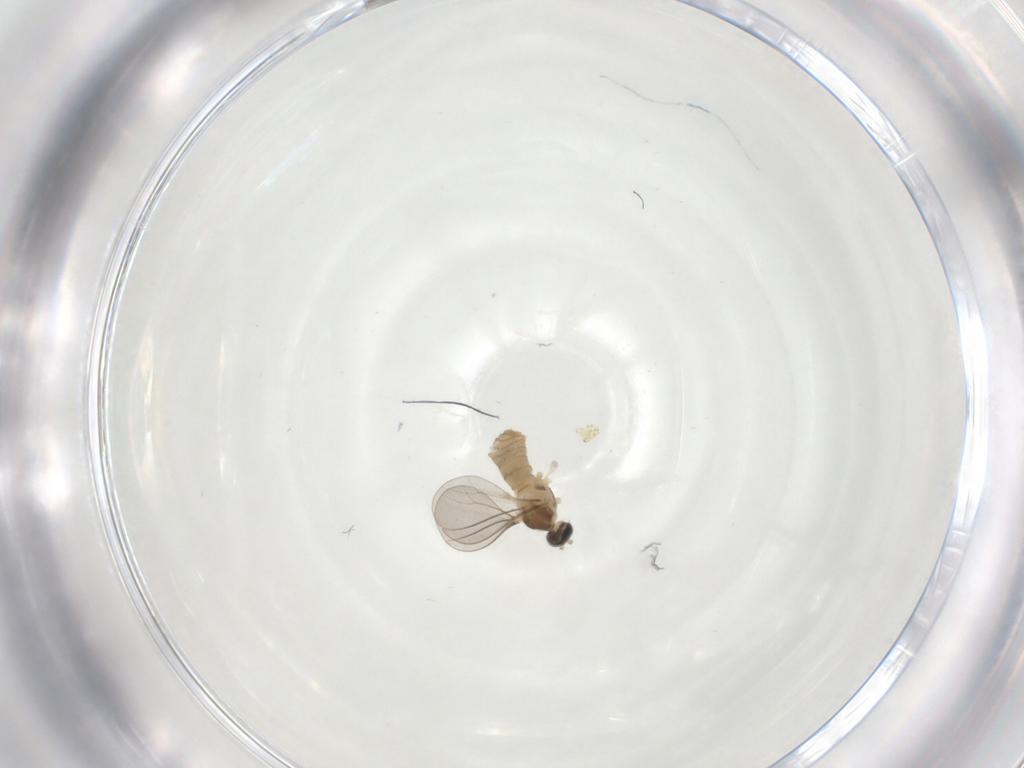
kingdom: Animalia
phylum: Arthropoda
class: Insecta
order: Diptera
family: Cecidomyiidae
